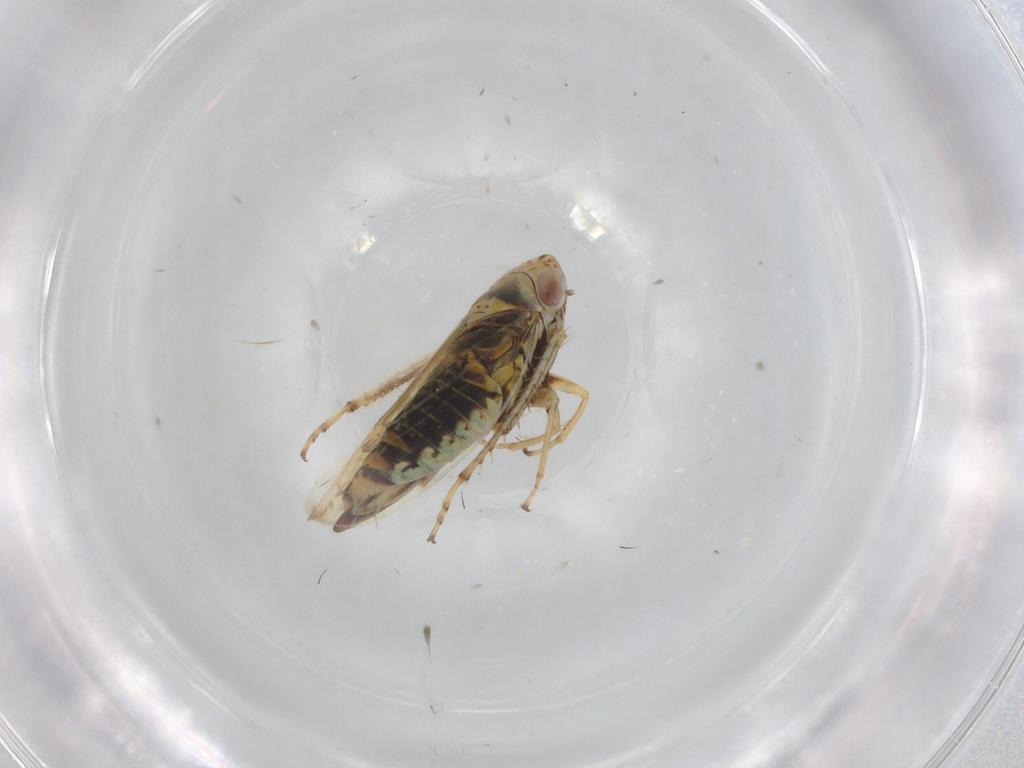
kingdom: Animalia
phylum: Arthropoda
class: Insecta
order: Hemiptera
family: Cicadellidae
